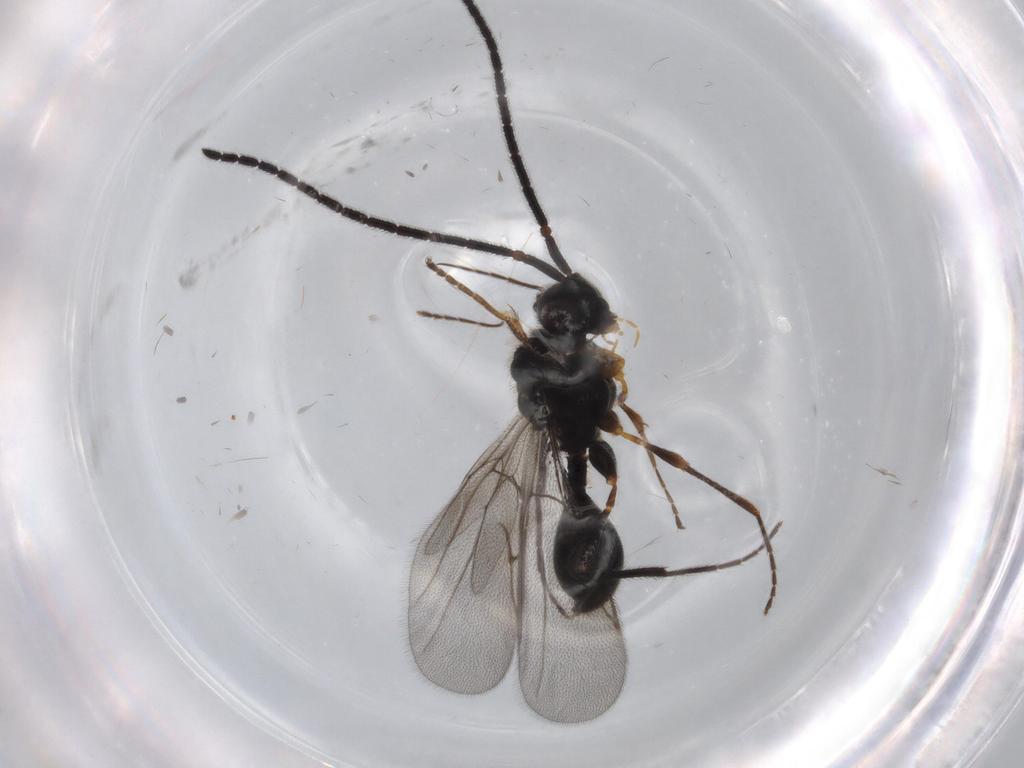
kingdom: Animalia
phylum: Arthropoda
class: Insecta
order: Hymenoptera
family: Diapriidae
